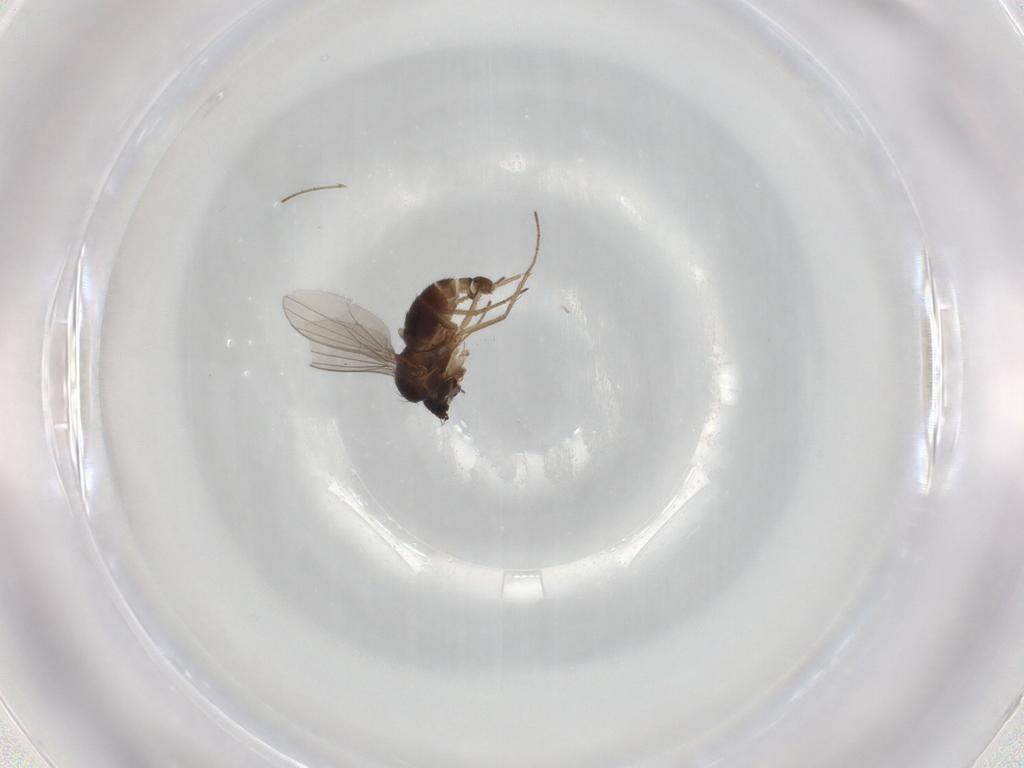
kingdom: Animalia
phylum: Arthropoda
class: Insecta
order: Diptera
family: Dolichopodidae
